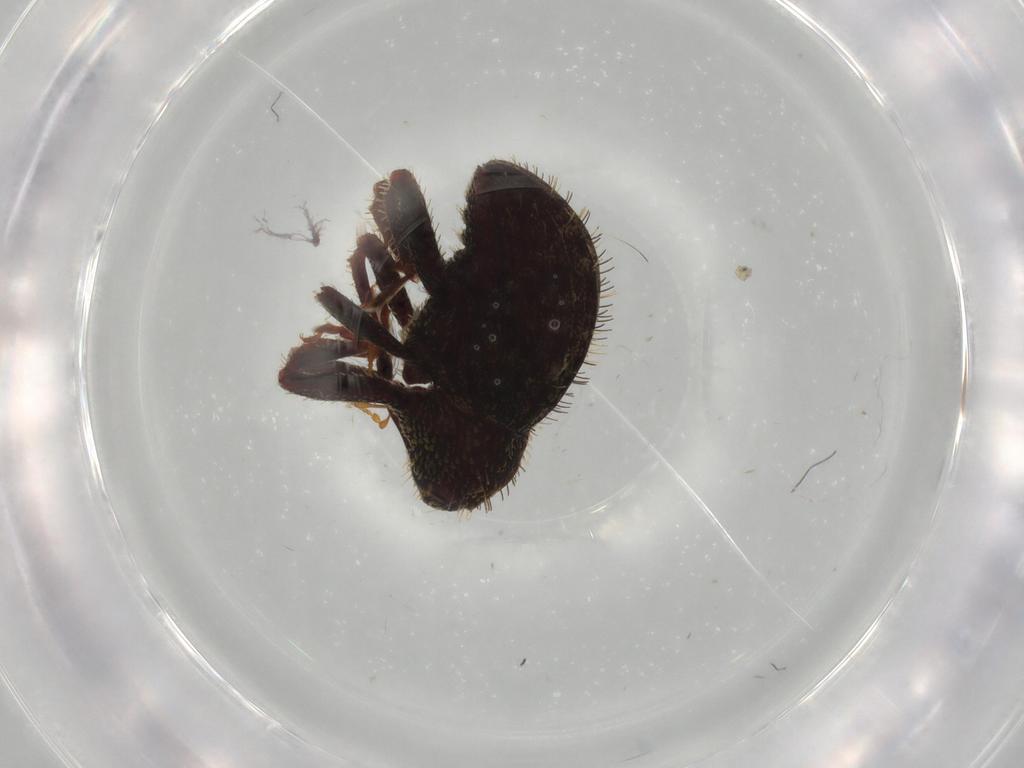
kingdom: Animalia
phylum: Arthropoda
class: Insecta
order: Coleoptera
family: Curculionidae
